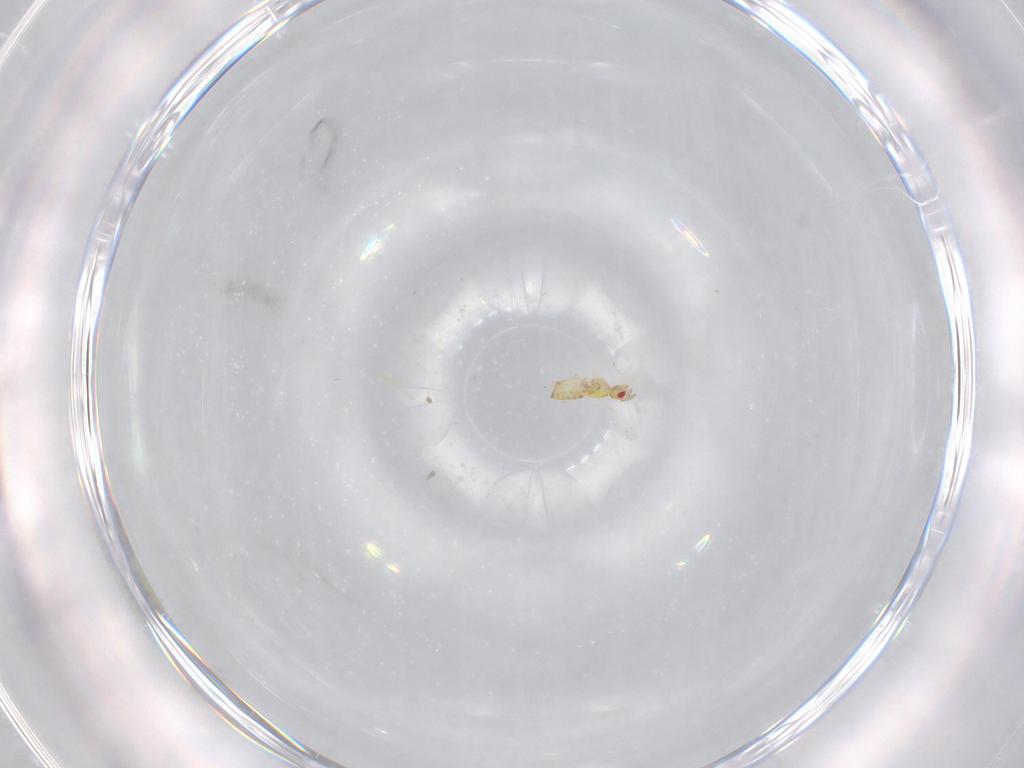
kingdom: Animalia
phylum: Arthropoda
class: Insecta
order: Hymenoptera
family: Trichogrammatidae
